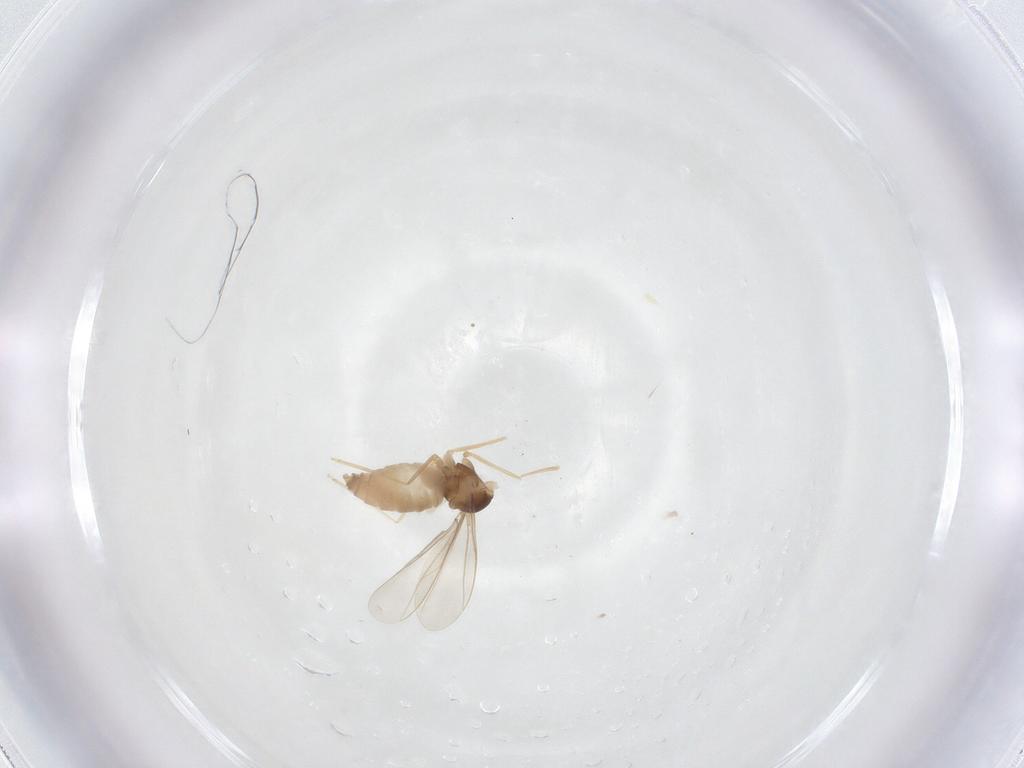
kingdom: Animalia
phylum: Arthropoda
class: Insecta
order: Diptera
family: Cecidomyiidae
